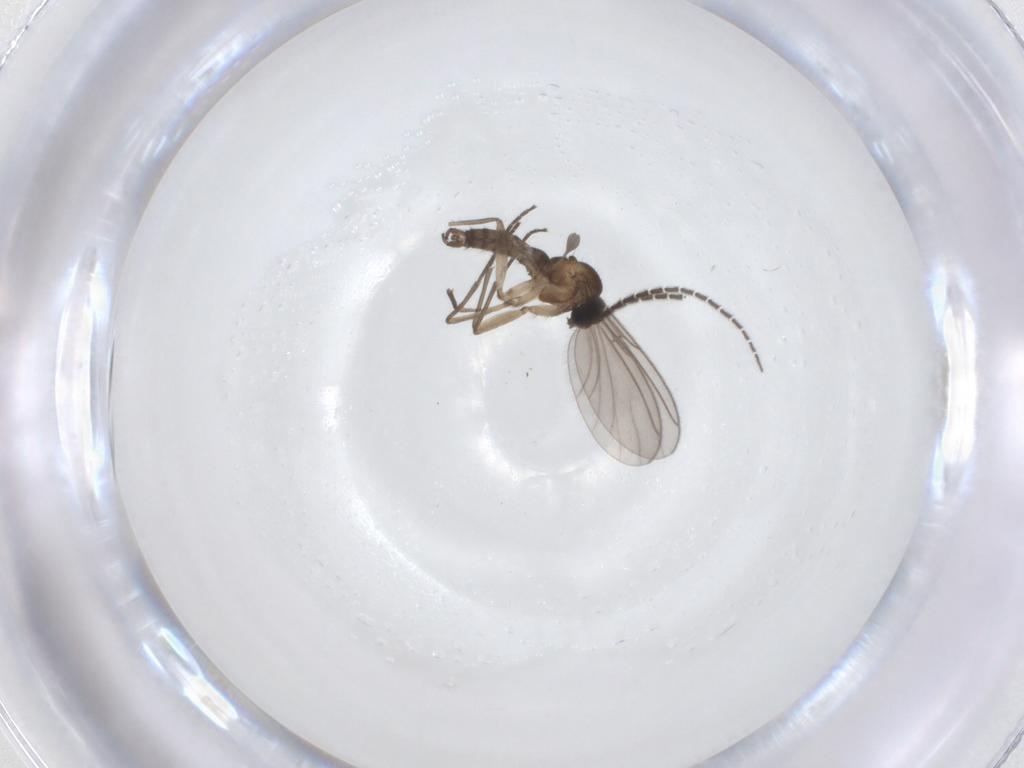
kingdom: Animalia
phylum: Arthropoda
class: Insecta
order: Diptera
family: Sciaridae
